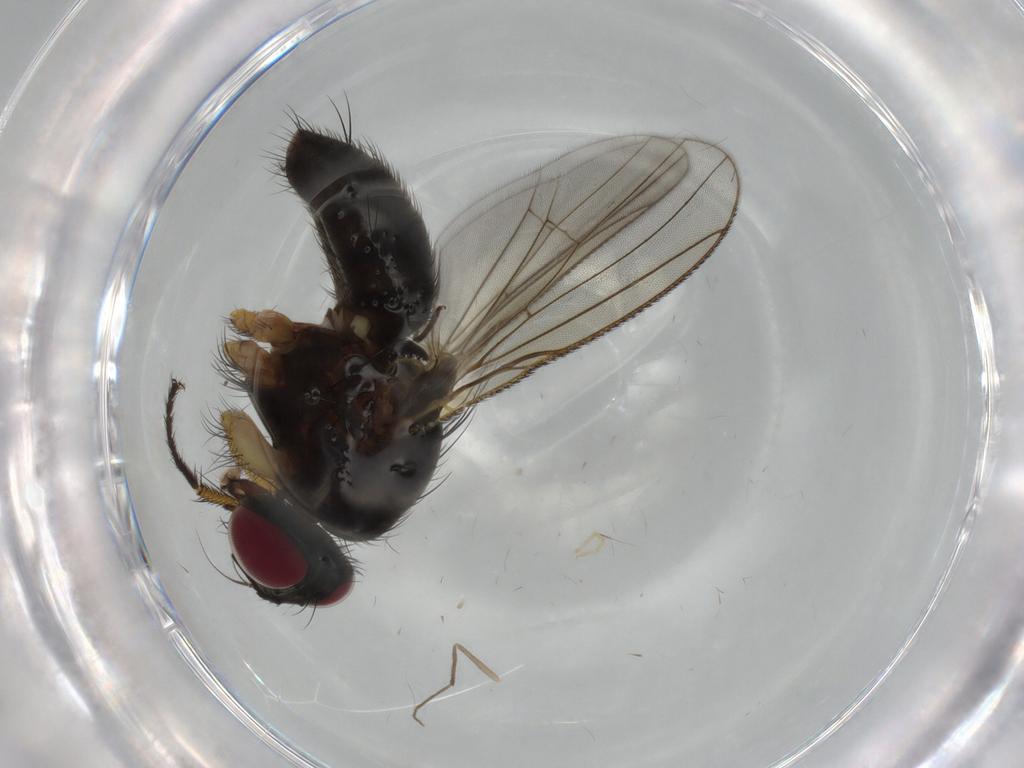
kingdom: Animalia
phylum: Arthropoda
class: Insecta
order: Diptera
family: Muscidae
